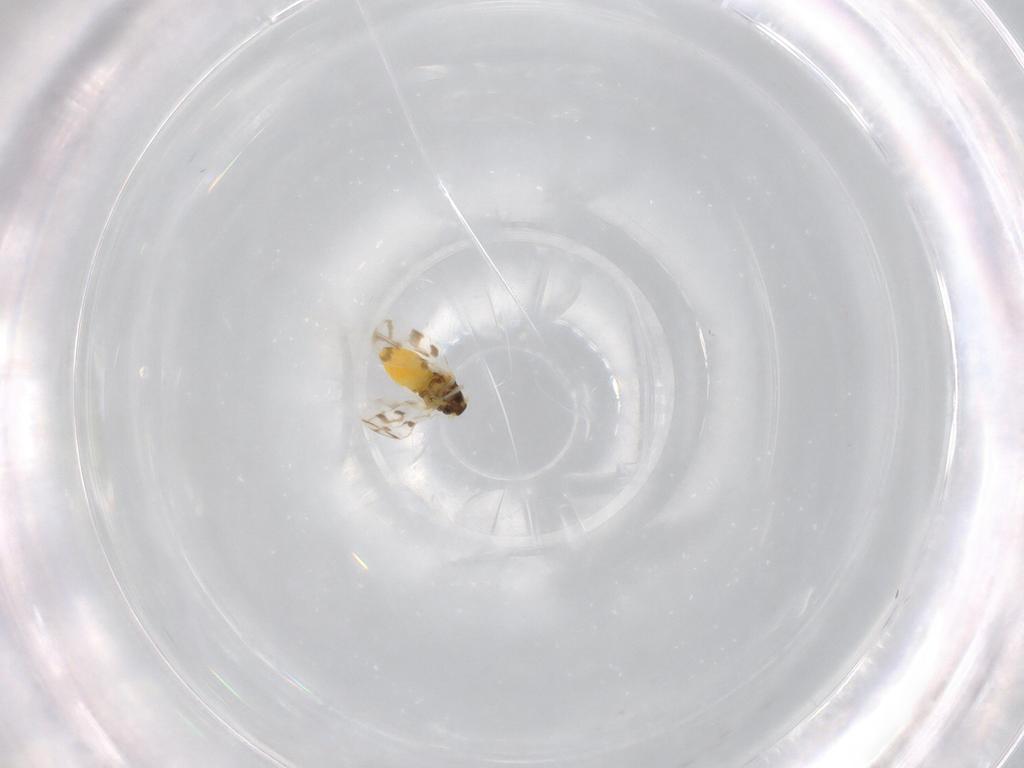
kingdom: Animalia
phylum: Arthropoda
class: Insecta
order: Hemiptera
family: Aleyrodidae
